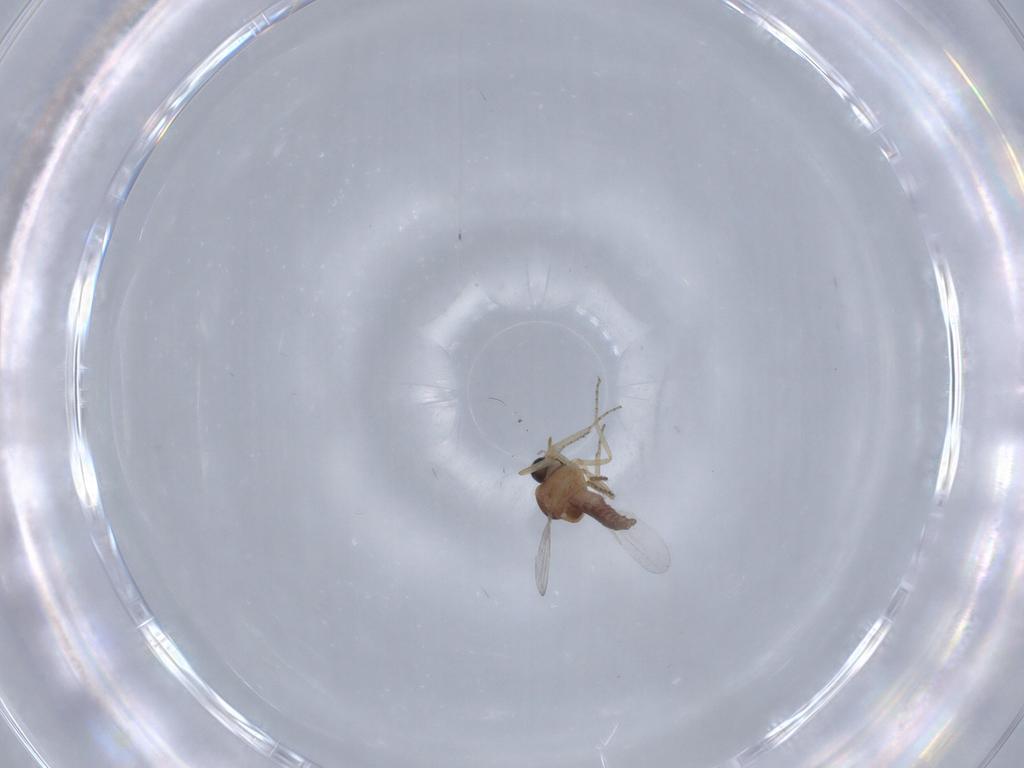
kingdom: Animalia
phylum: Arthropoda
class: Insecta
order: Diptera
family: Ceratopogonidae
